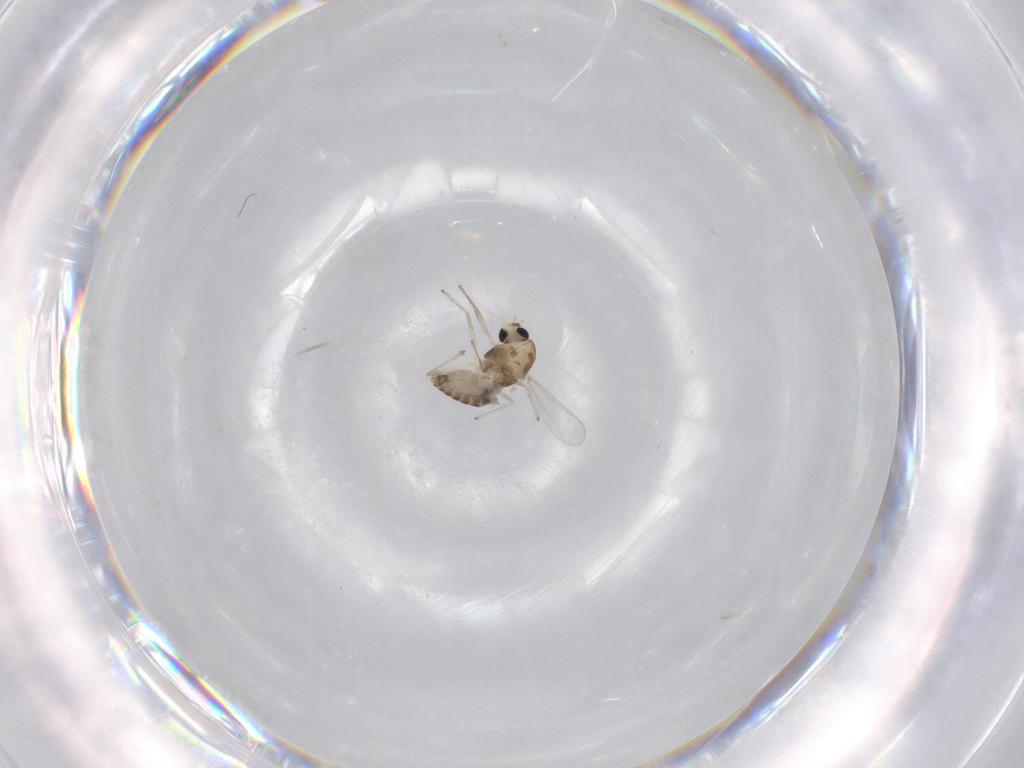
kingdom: Animalia
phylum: Arthropoda
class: Insecta
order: Diptera
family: Chironomidae
